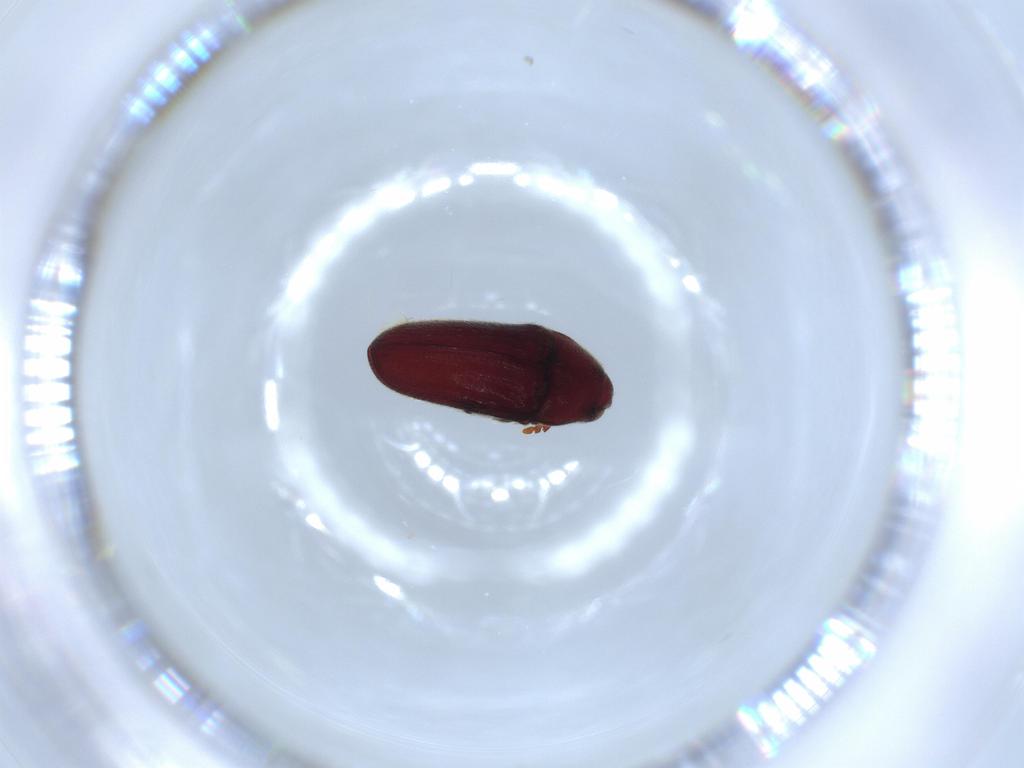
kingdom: Animalia
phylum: Arthropoda
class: Insecta
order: Coleoptera
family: Throscidae
